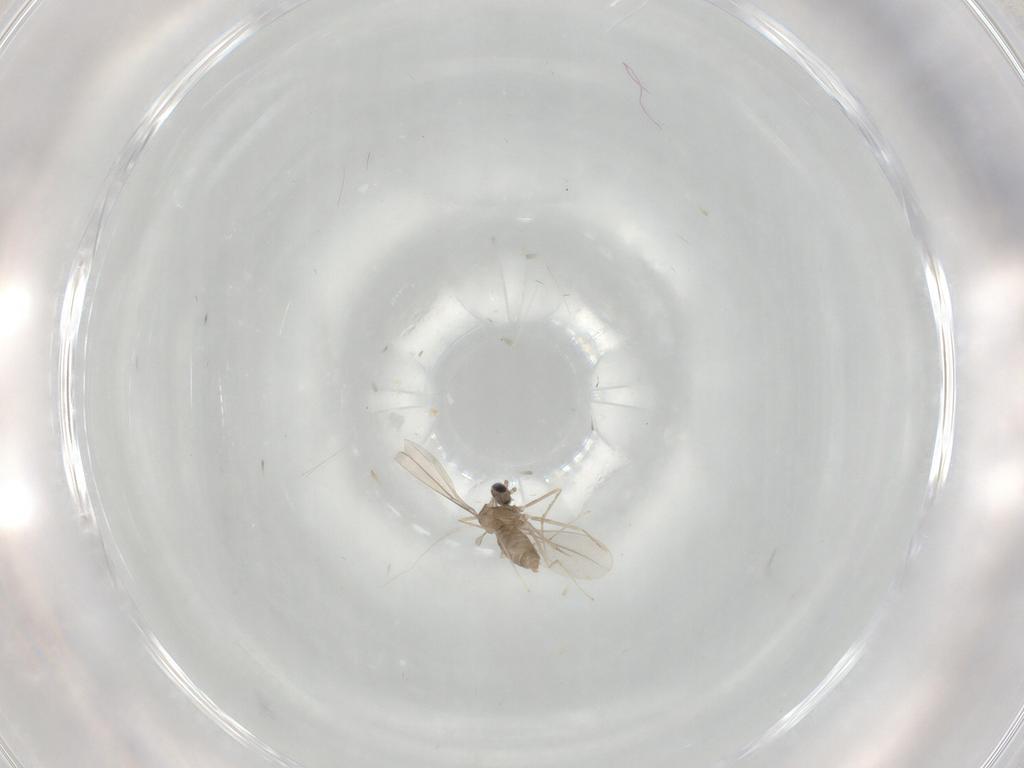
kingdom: Animalia
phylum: Arthropoda
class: Insecta
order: Diptera
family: Cecidomyiidae
